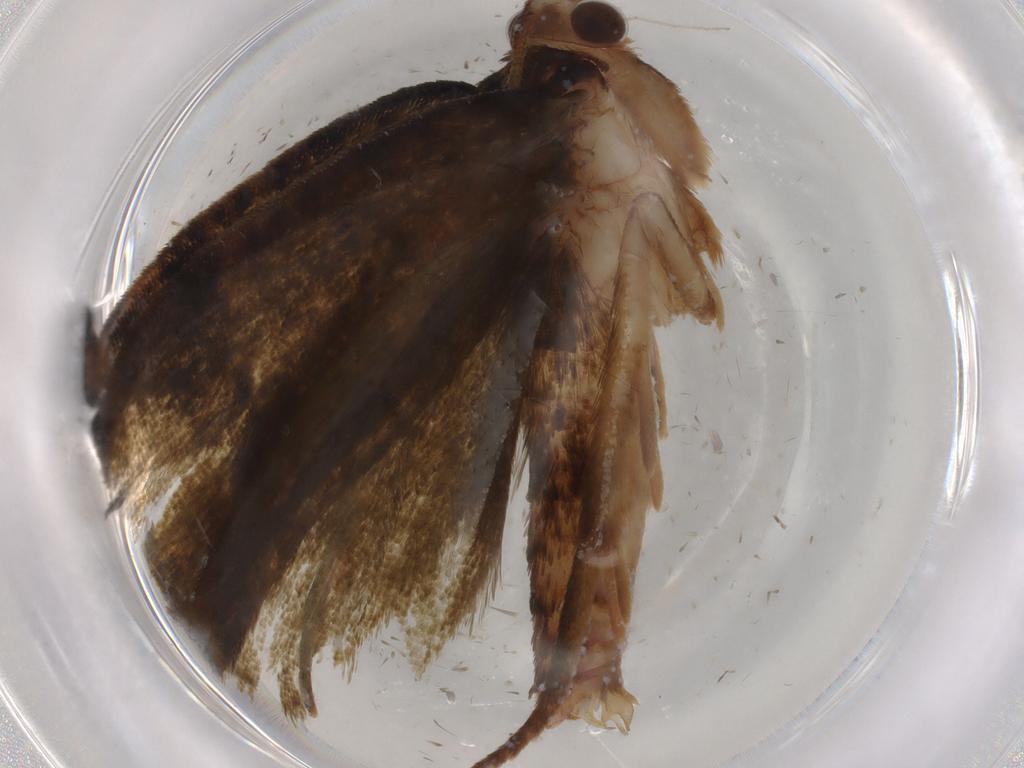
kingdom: Animalia
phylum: Arthropoda
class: Insecta
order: Lepidoptera
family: Geometridae
